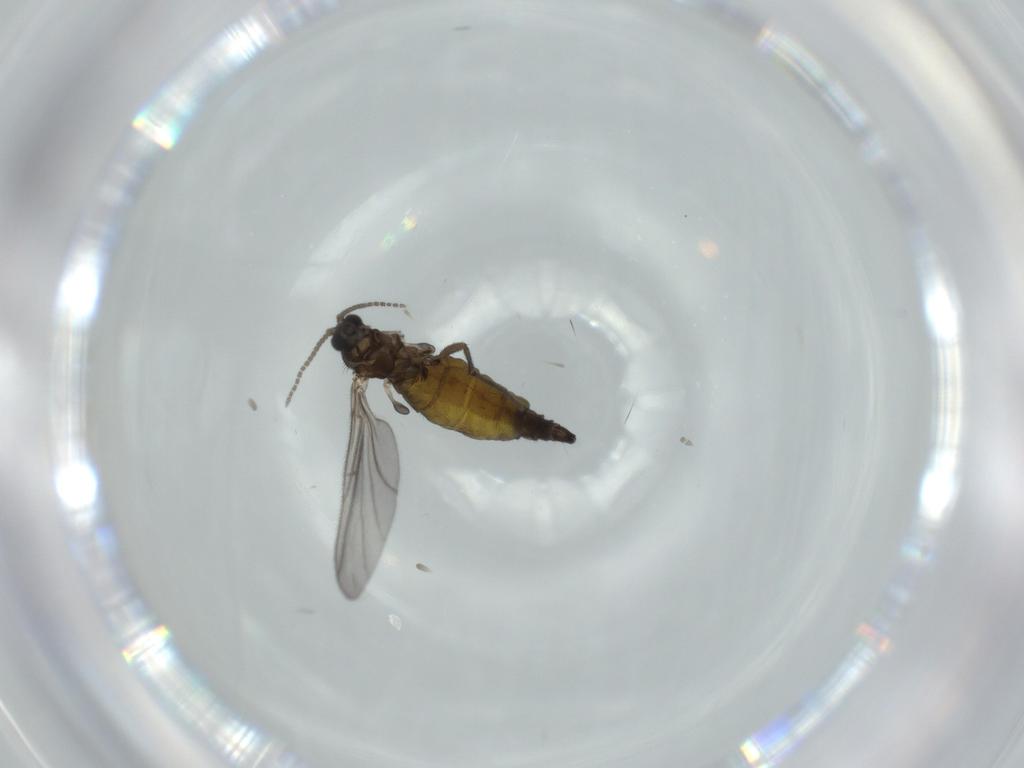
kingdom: Animalia
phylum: Arthropoda
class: Insecta
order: Diptera
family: Sciaridae
